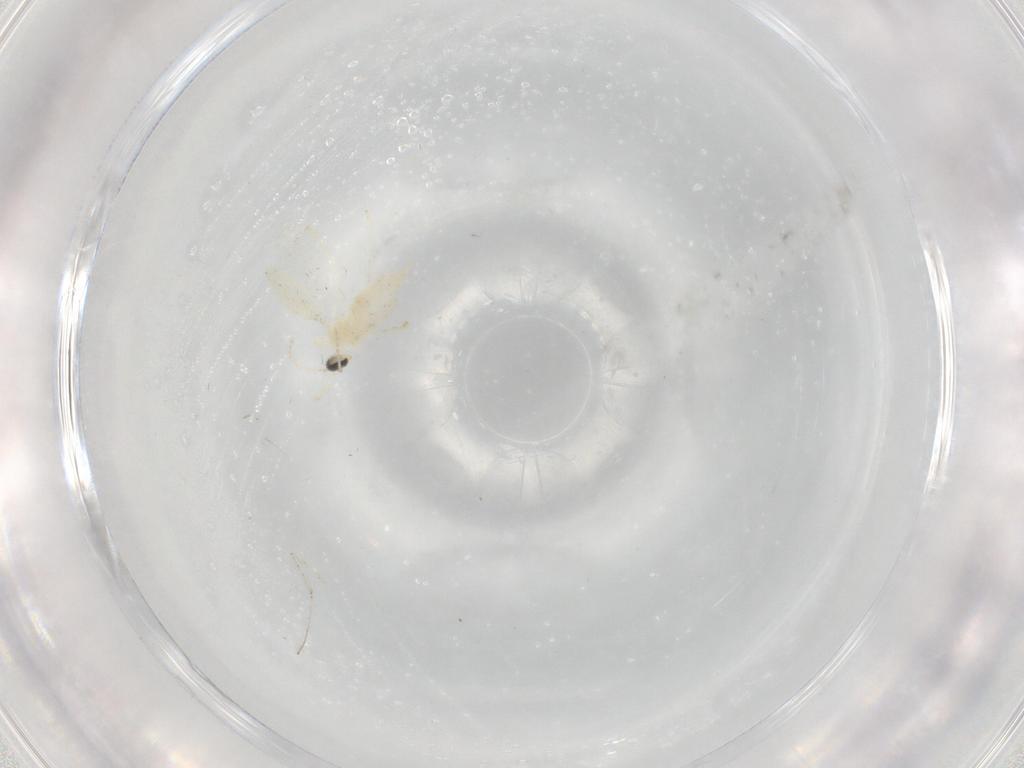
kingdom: Animalia
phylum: Arthropoda
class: Insecta
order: Diptera
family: Cecidomyiidae
